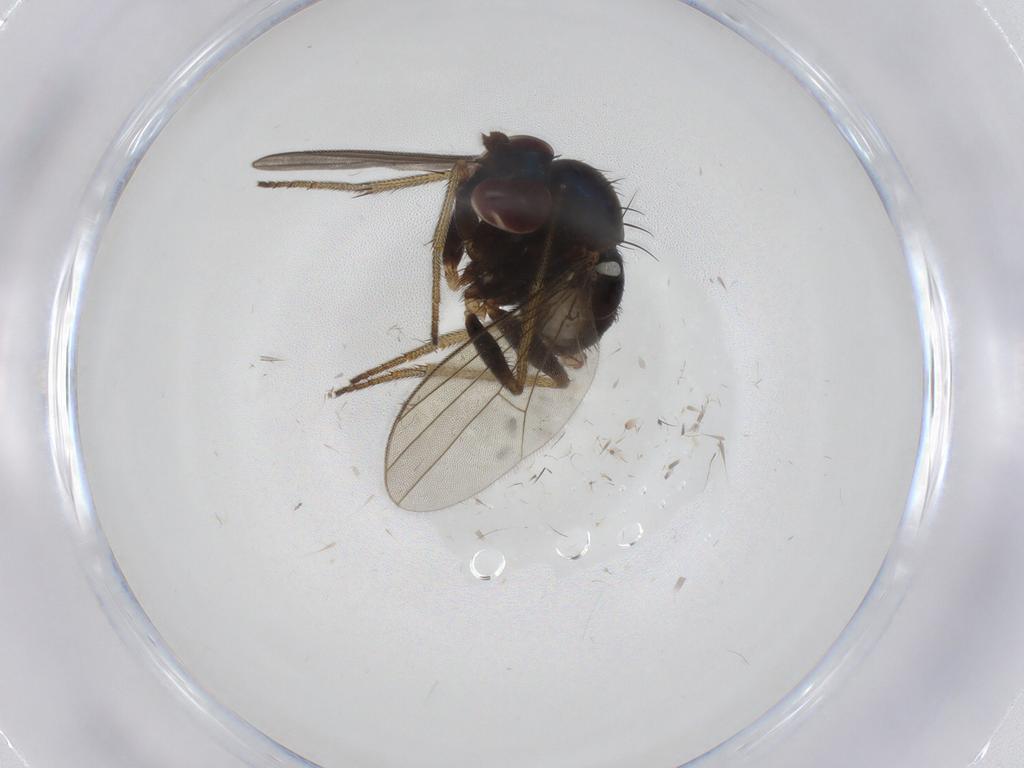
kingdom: Animalia
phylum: Arthropoda
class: Insecta
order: Diptera
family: Dolichopodidae
